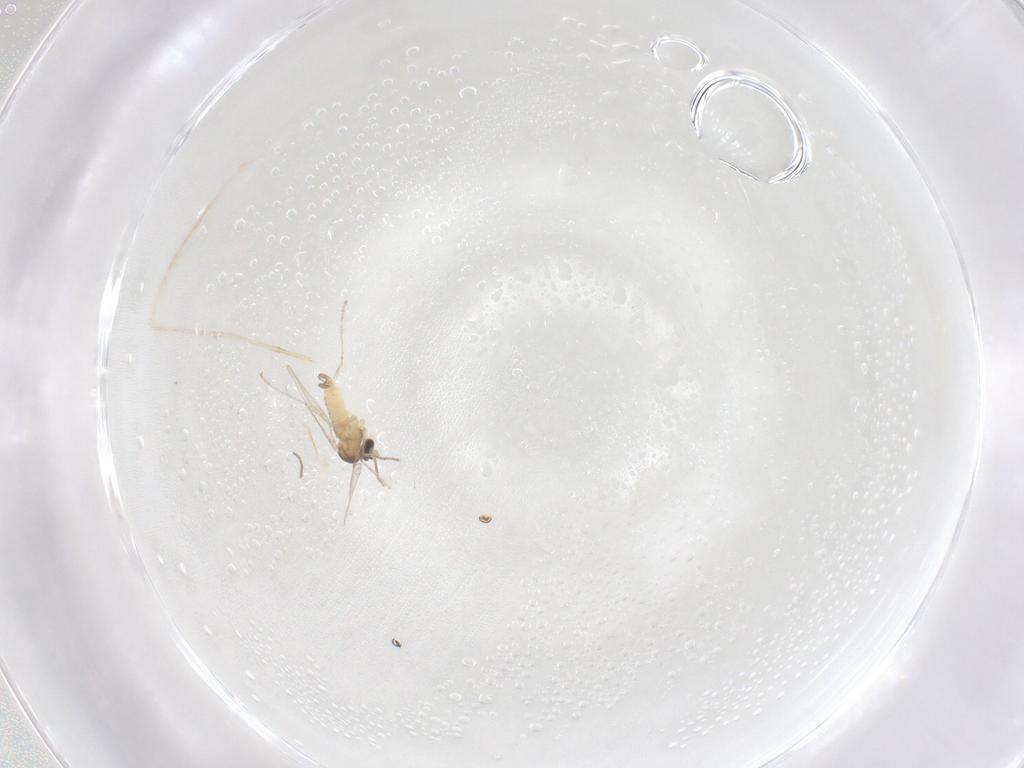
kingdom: Animalia
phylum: Arthropoda
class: Insecta
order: Diptera
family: Cecidomyiidae
